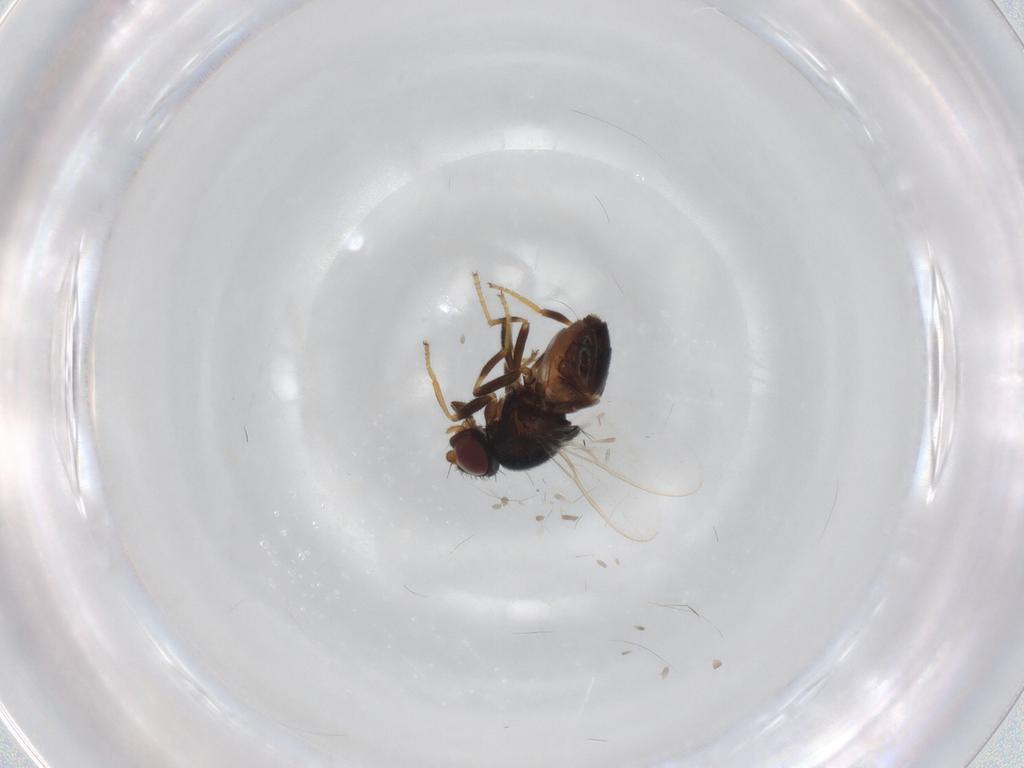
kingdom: Animalia
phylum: Arthropoda
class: Insecta
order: Diptera
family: Chloropidae
